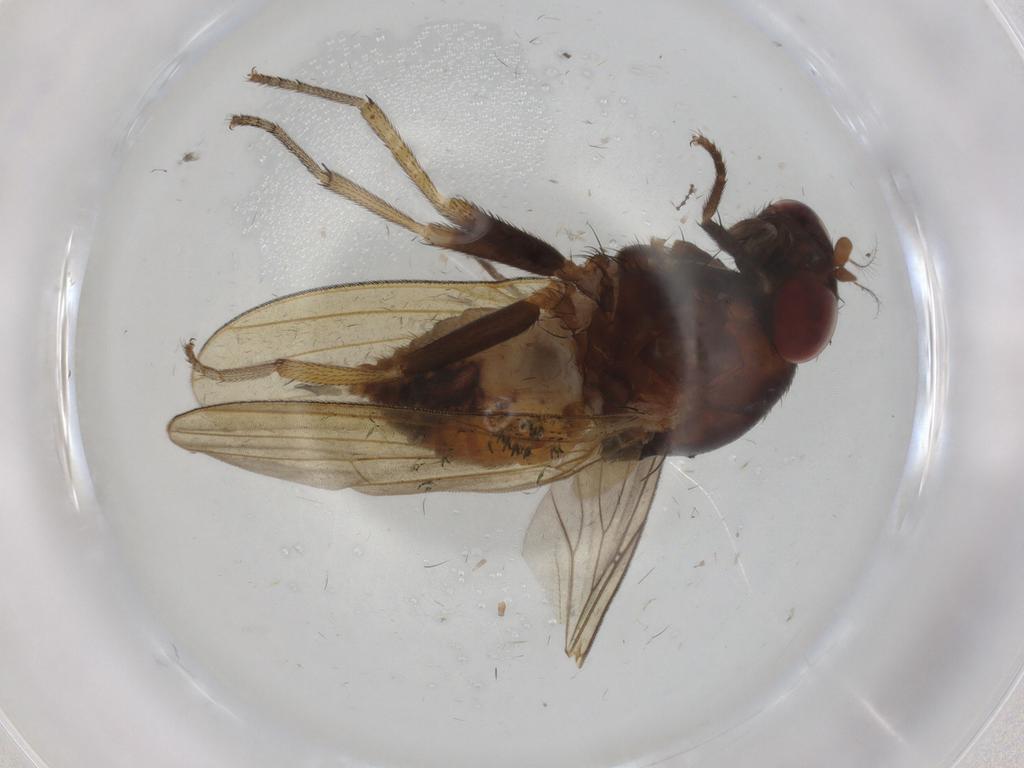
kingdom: Animalia
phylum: Arthropoda
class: Insecta
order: Diptera
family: Psychodidae
